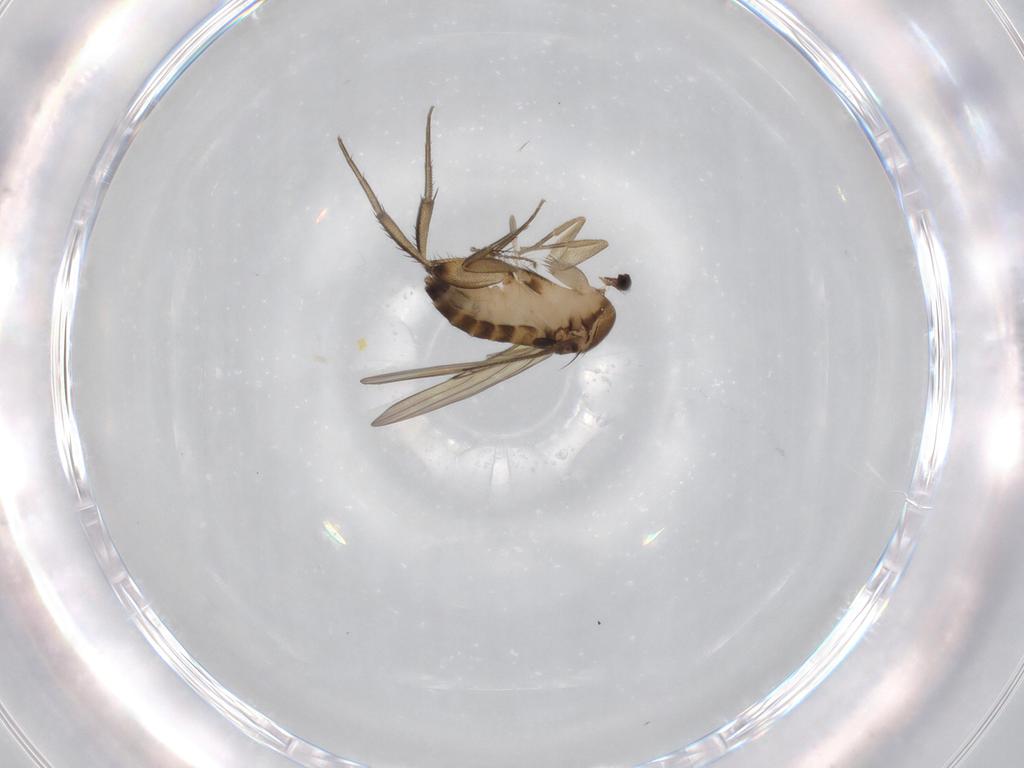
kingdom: Animalia
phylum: Arthropoda
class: Insecta
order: Diptera
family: Phoridae
